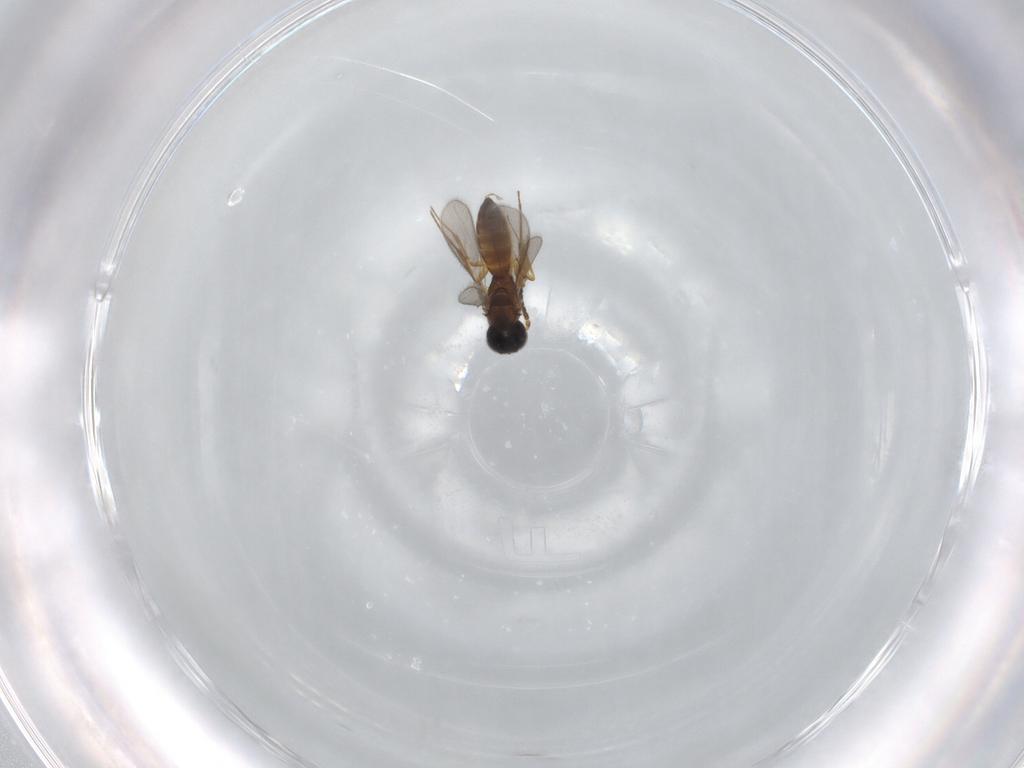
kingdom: Animalia
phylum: Arthropoda
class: Insecta
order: Hymenoptera
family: Scelionidae
